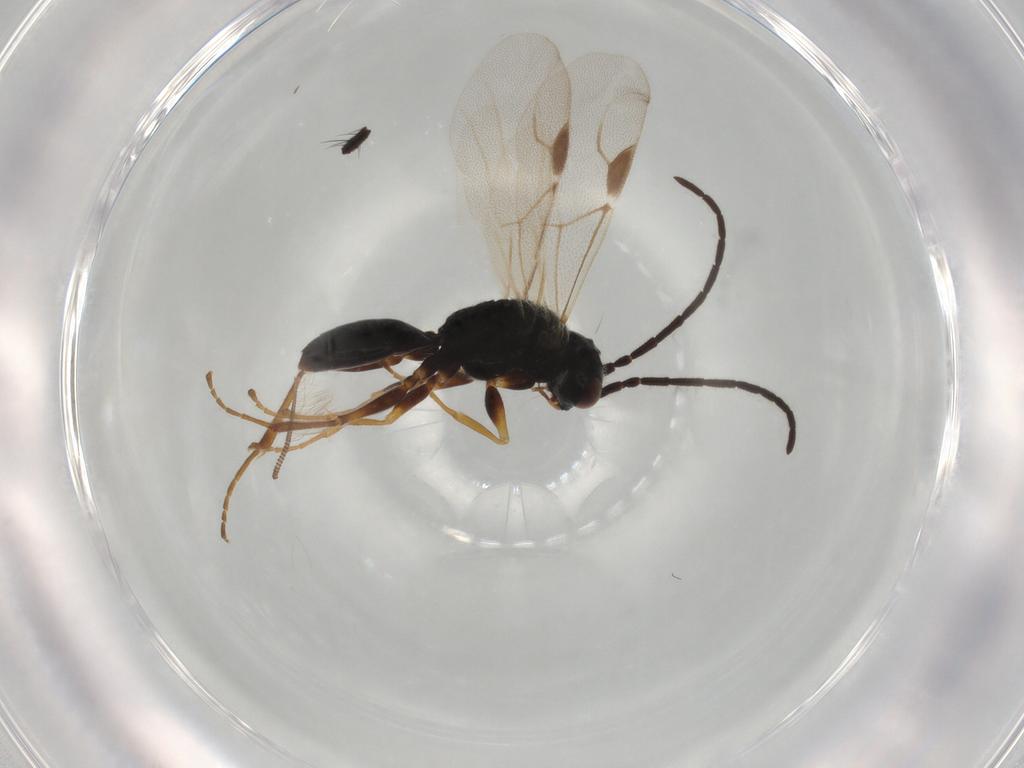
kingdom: Animalia
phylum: Arthropoda
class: Insecta
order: Hymenoptera
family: Dryinidae
